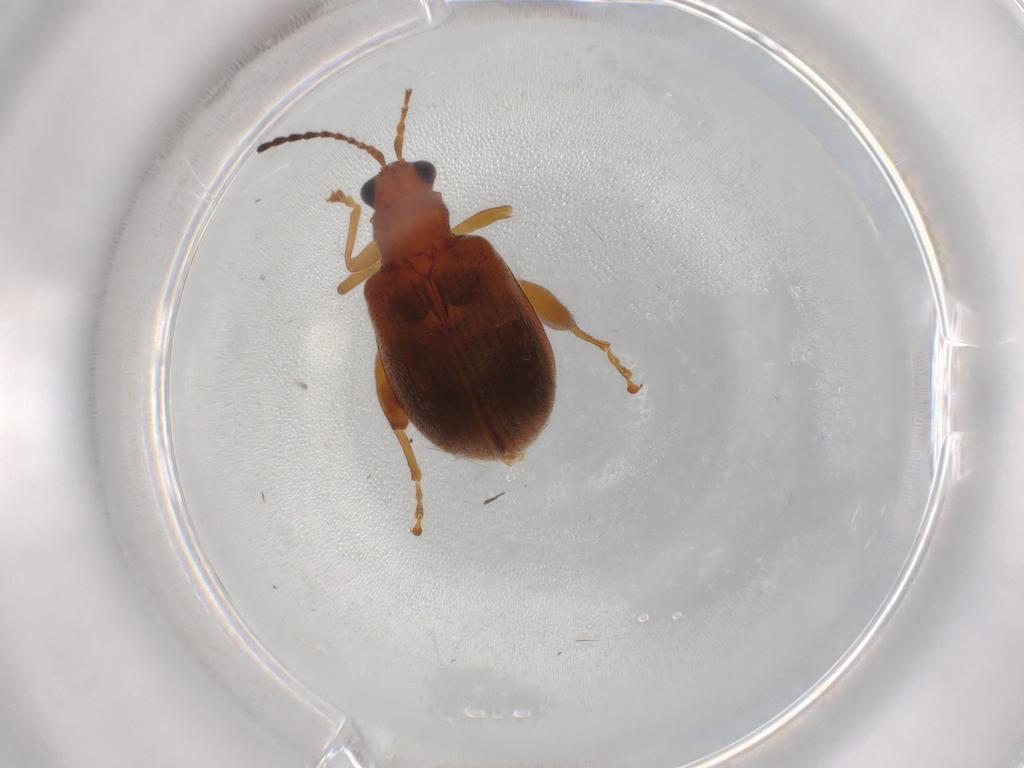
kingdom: Animalia
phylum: Arthropoda
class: Insecta
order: Coleoptera
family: Chrysomelidae
